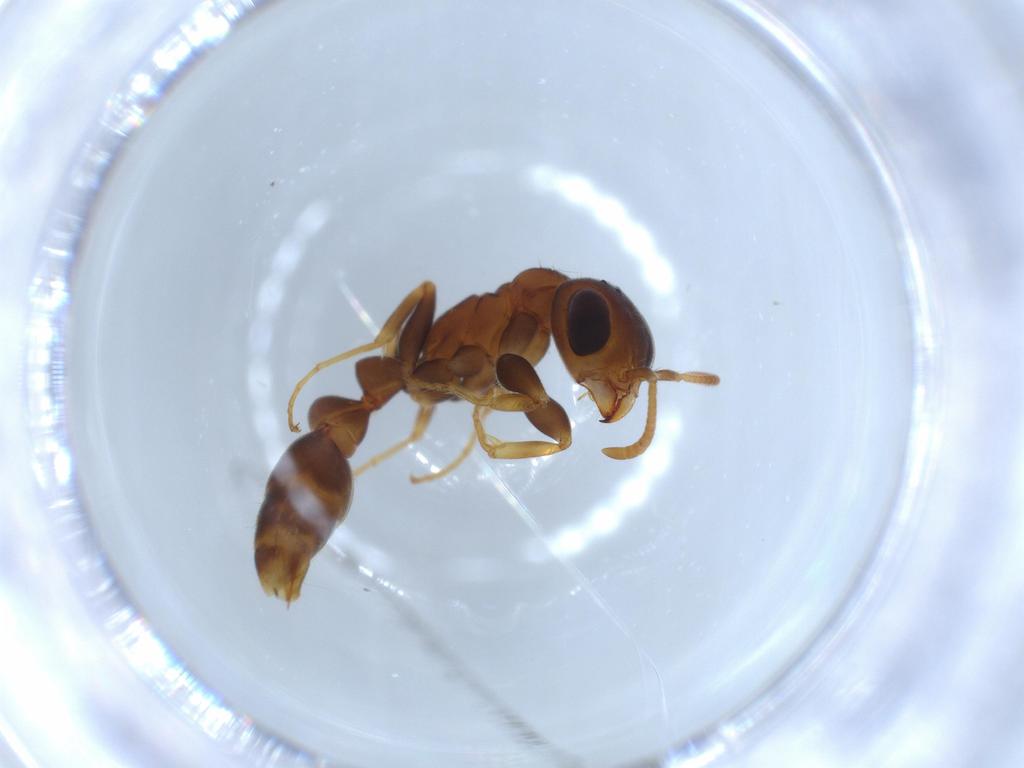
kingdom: Animalia
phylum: Arthropoda
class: Insecta
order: Hymenoptera
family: Formicidae
